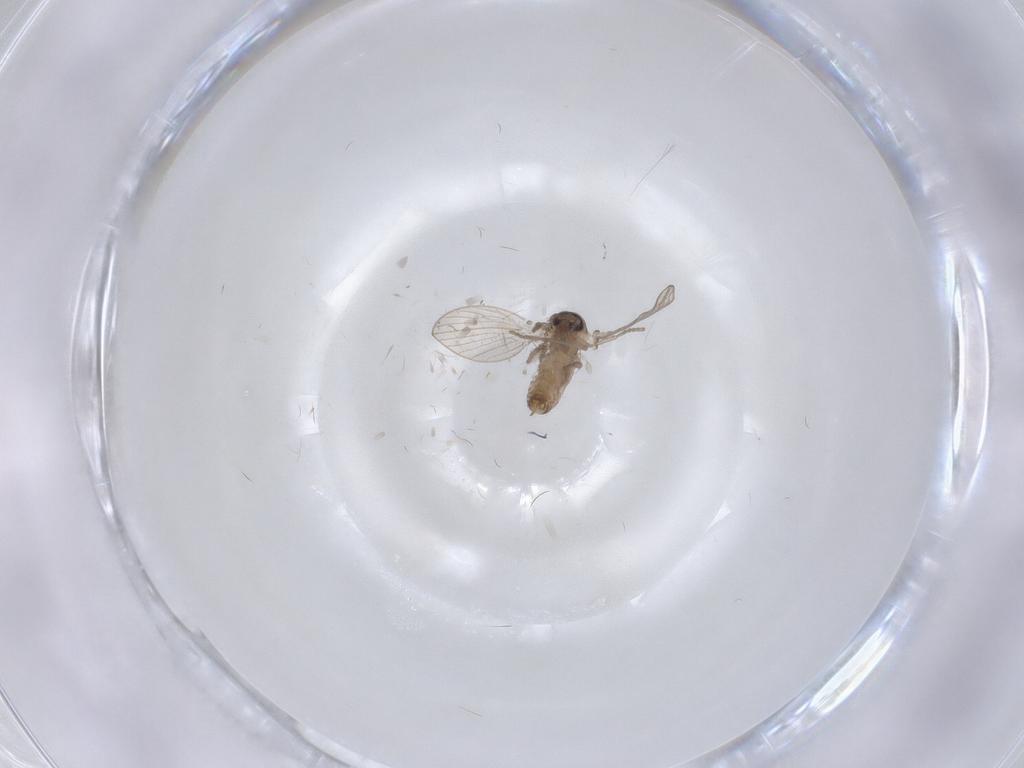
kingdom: Animalia
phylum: Arthropoda
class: Insecta
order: Diptera
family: Psychodidae
